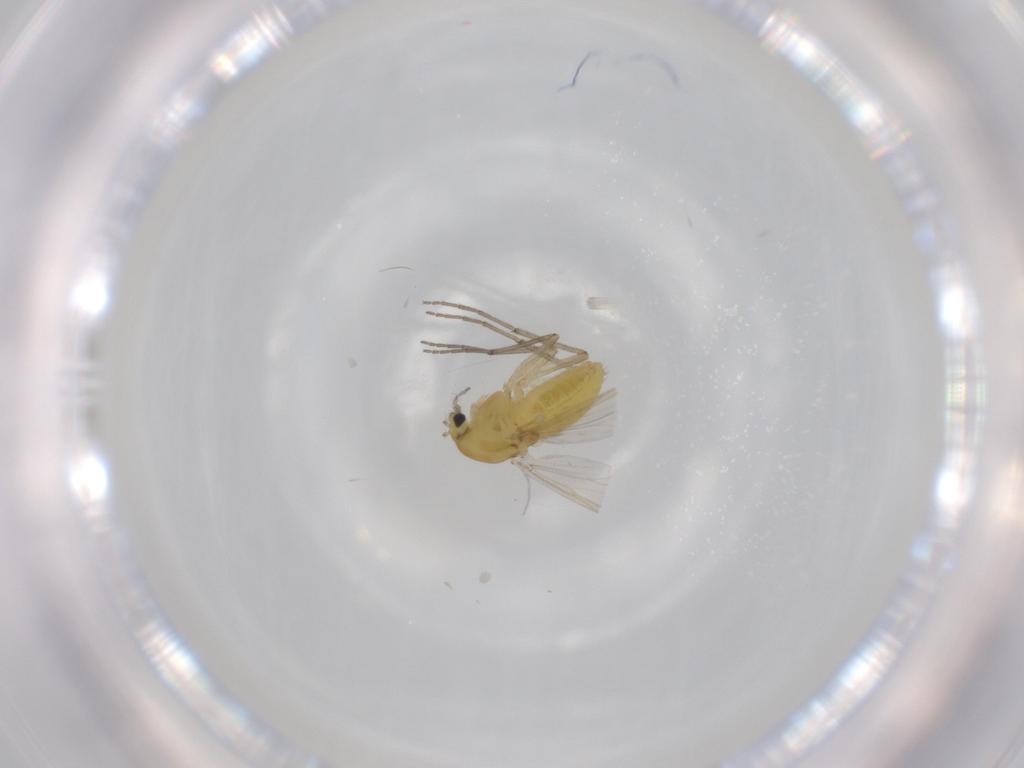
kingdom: Animalia
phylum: Arthropoda
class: Insecta
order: Diptera
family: Chironomidae
